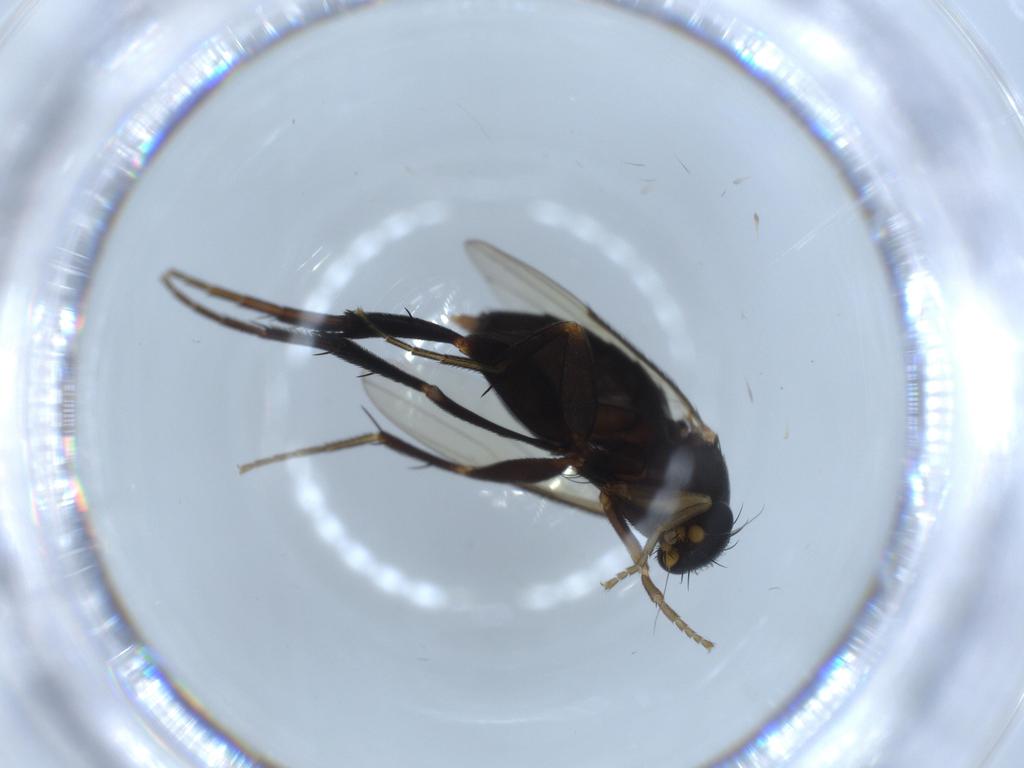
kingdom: Animalia
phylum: Arthropoda
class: Insecta
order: Diptera
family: Phoridae
